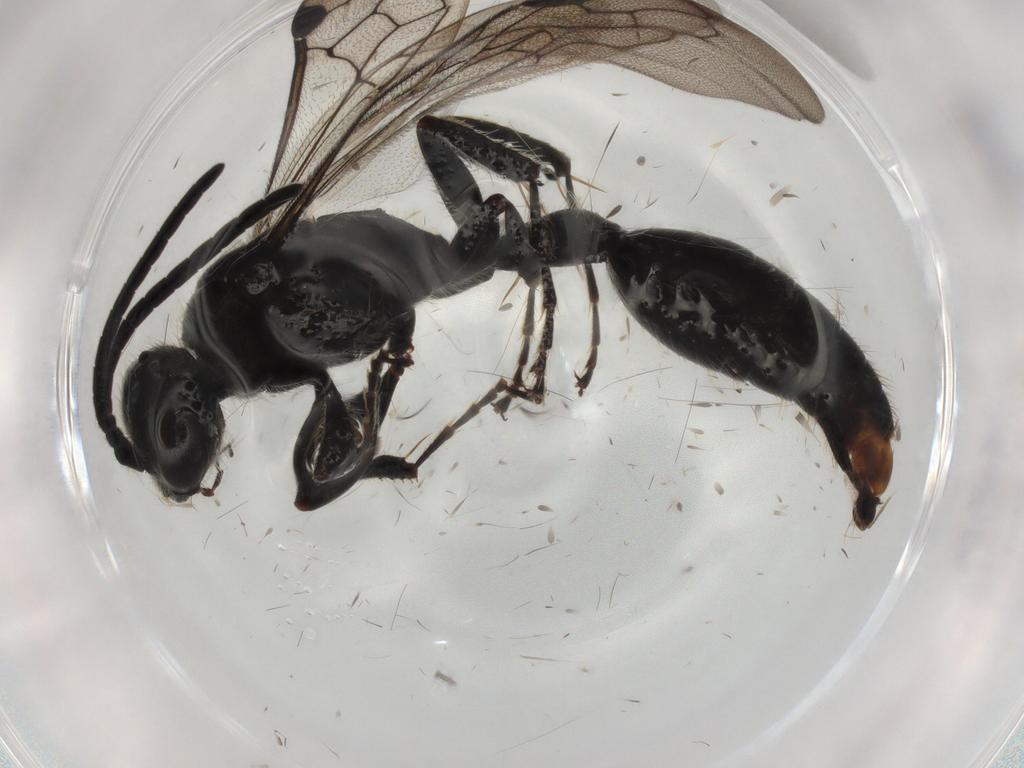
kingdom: Animalia
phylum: Arthropoda
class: Insecta
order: Hymenoptera
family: Tiphiidae
